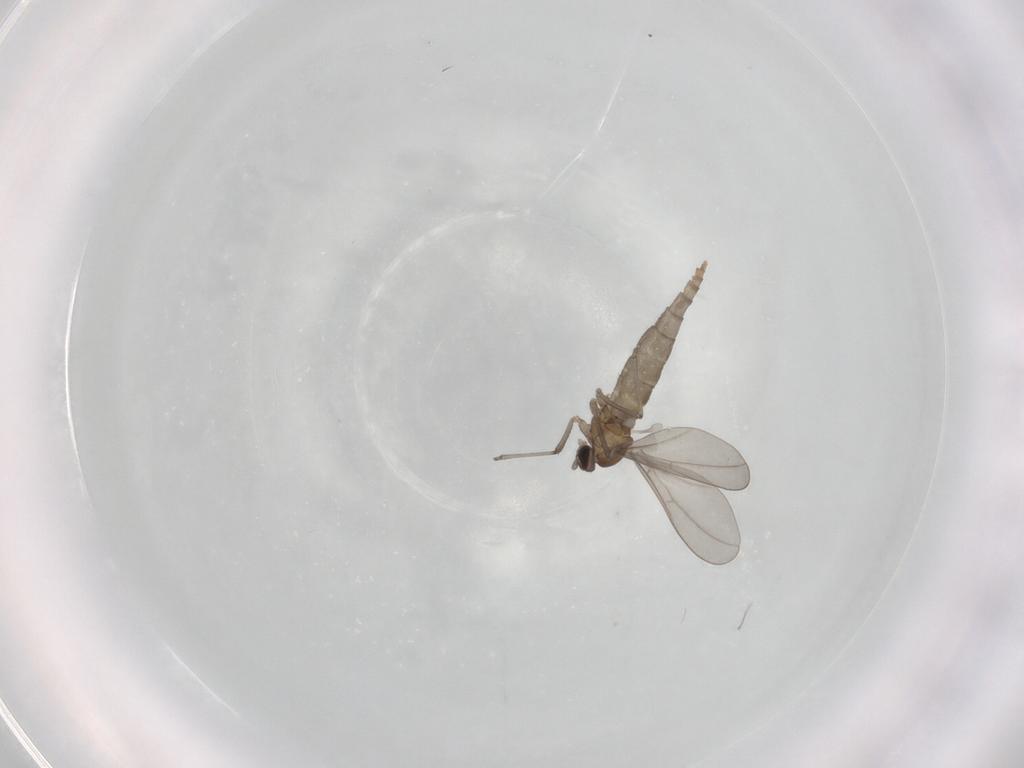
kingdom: Animalia
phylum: Arthropoda
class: Insecta
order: Diptera
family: Cecidomyiidae
